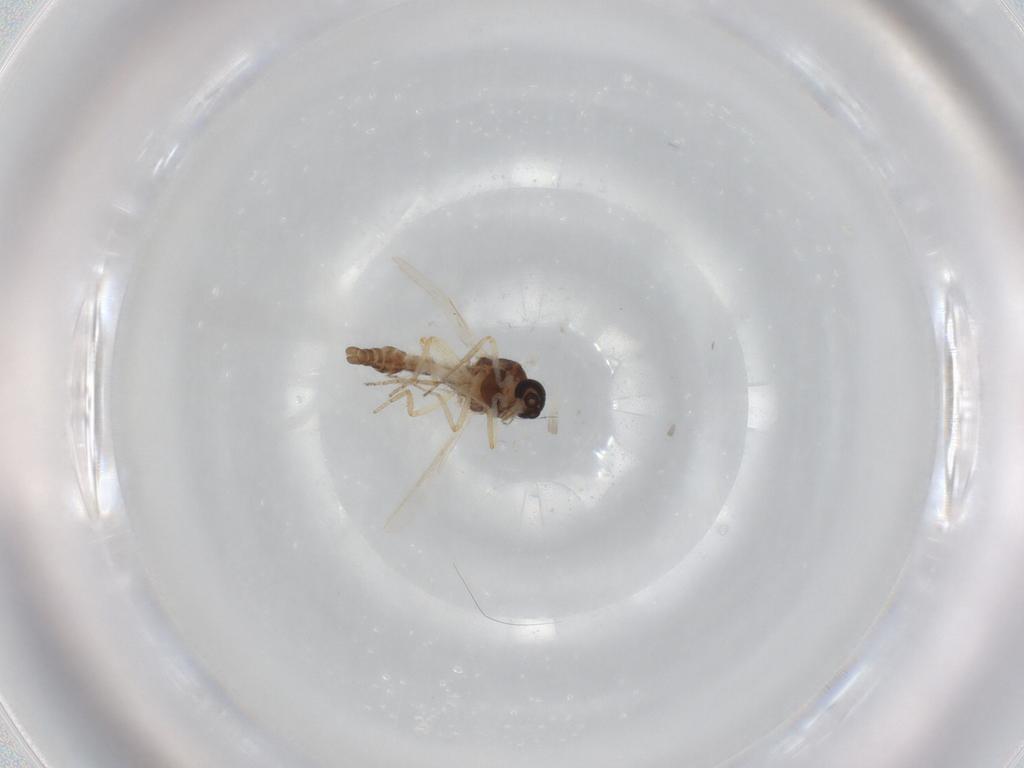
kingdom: Animalia
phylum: Arthropoda
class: Insecta
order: Diptera
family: Ceratopogonidae
